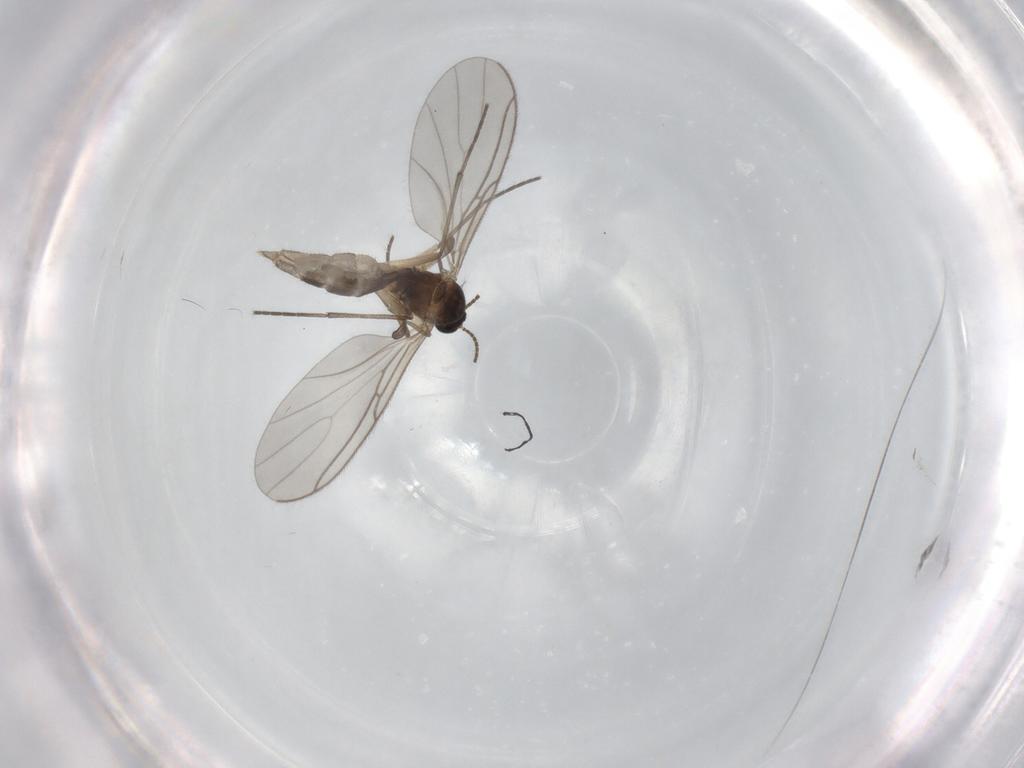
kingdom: Animalia
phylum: Arthropoda
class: Insecta
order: Diptera
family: Sciaridae
